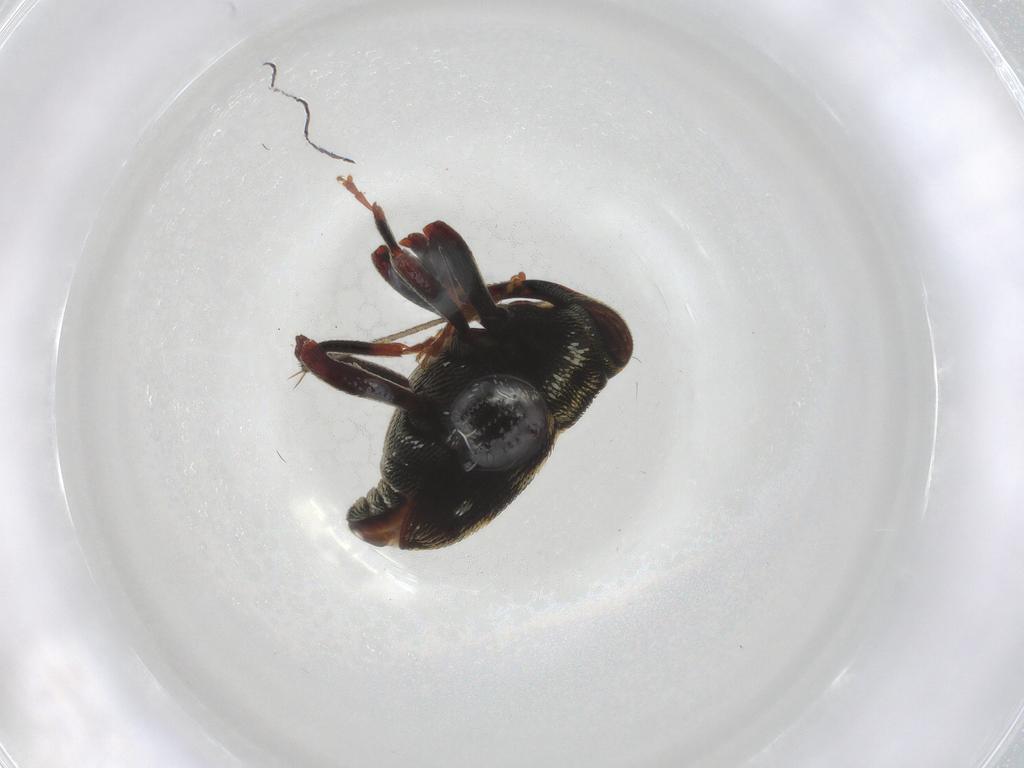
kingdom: Animalia
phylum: Arthropoda
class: Insecta
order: Coleoptera
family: Curculionidae
